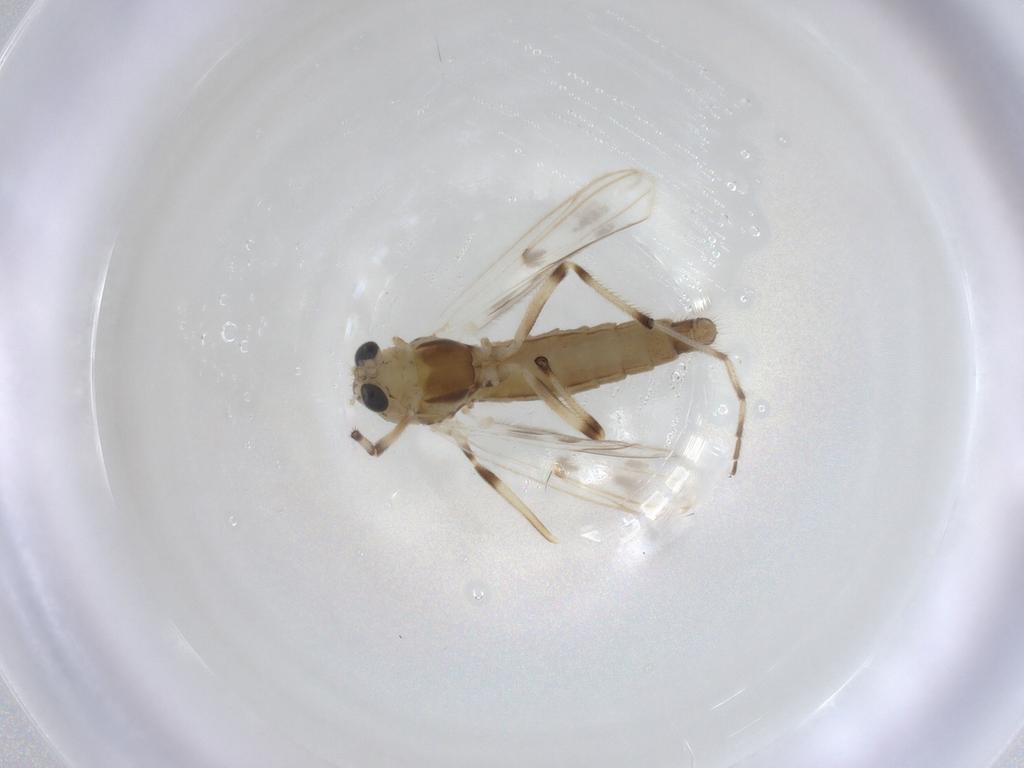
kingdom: Animalia
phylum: Arthropoda
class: Insecta
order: Diptera
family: Chironomidae
